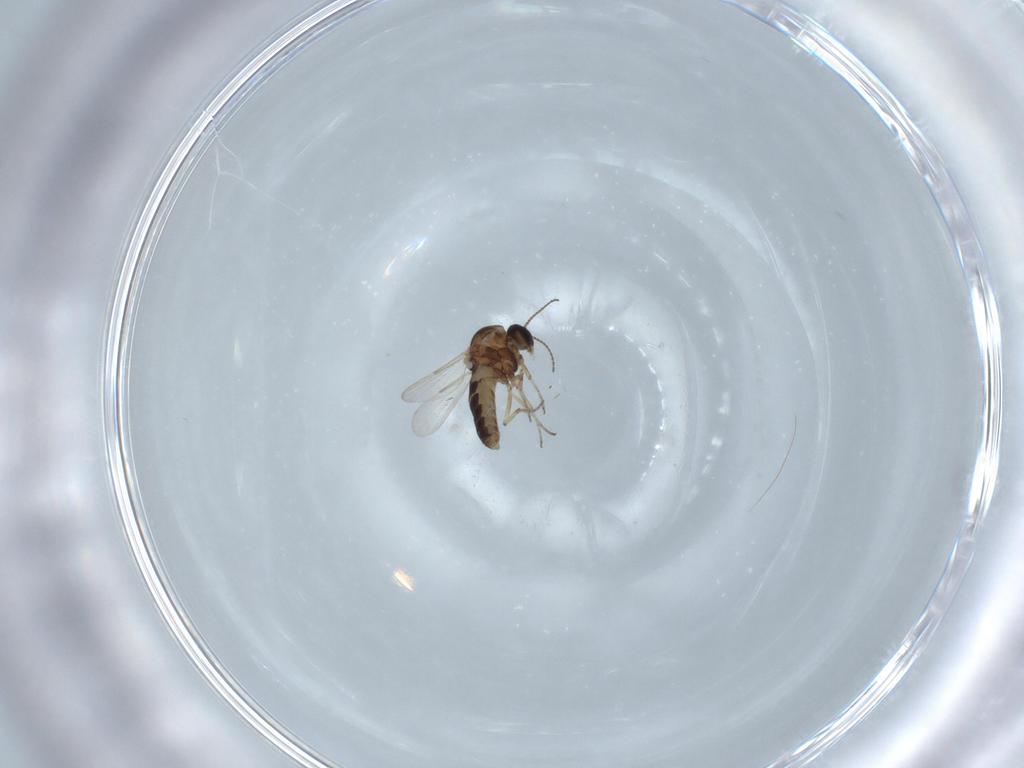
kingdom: Animalia
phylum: Arthropoda
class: Insecta
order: Diptera
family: Ceratopogonidae
